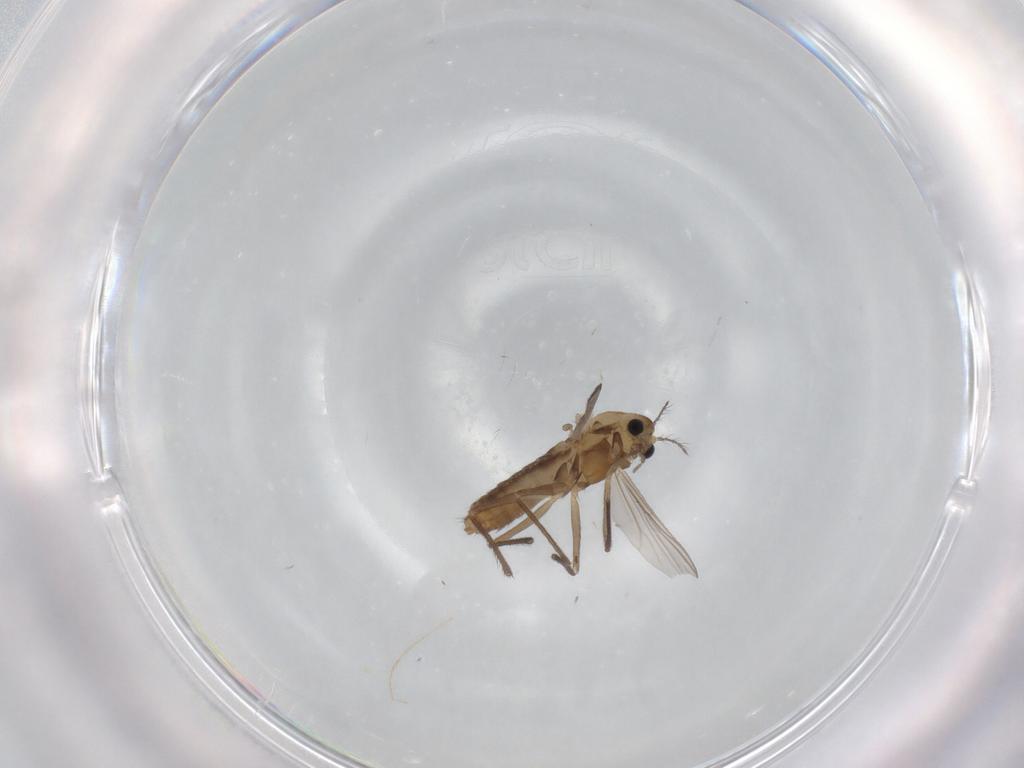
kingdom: Animalia
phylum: Arthropoda
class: Insecta
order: Diptera
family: Chironomidae
